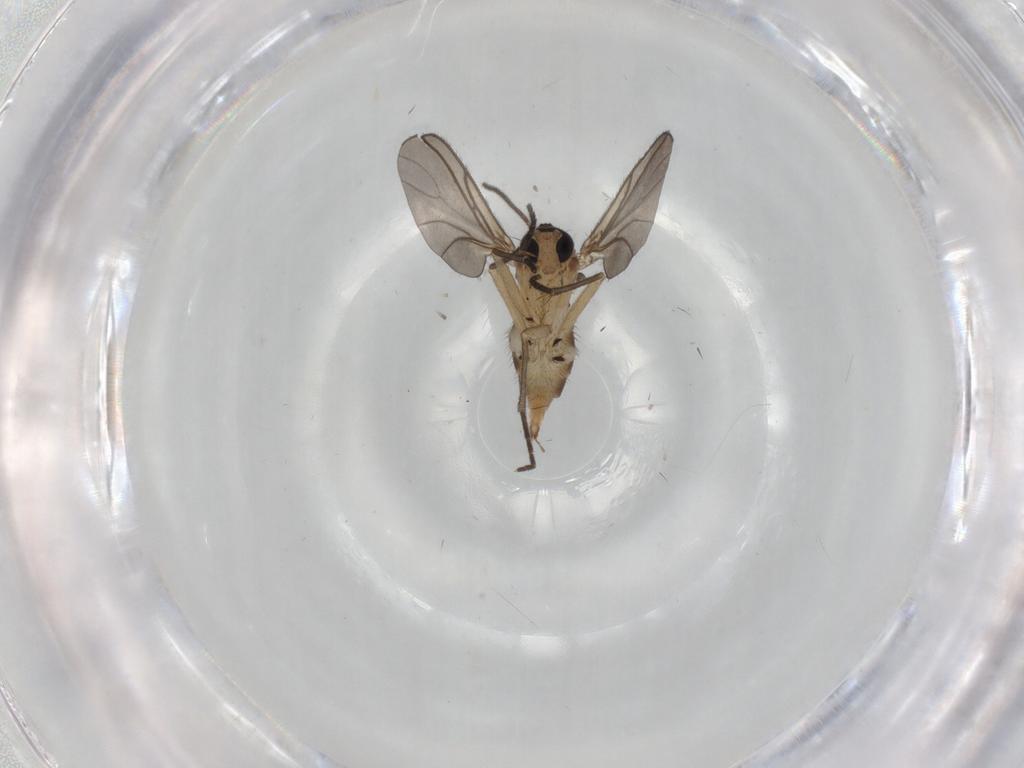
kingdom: Animalia
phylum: Arthropoda
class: Insecta
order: Diptera
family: Sciaridae
